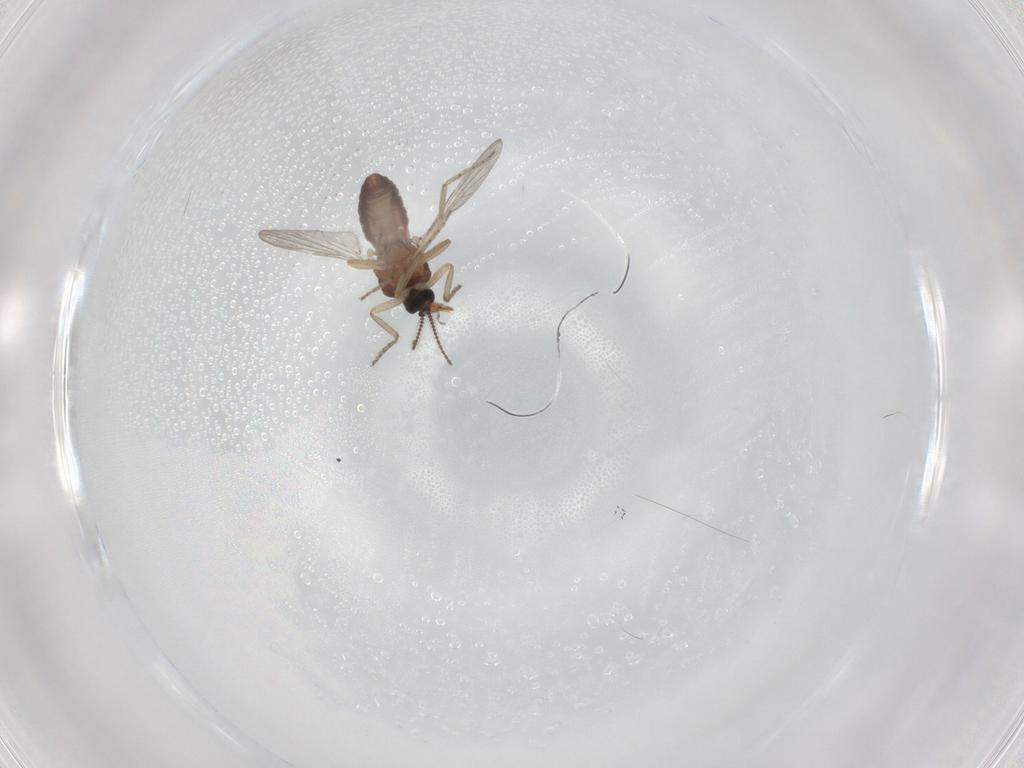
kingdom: Animalia
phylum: Arthropoda
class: Insecta
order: Diptera
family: Ceratopogonidae
